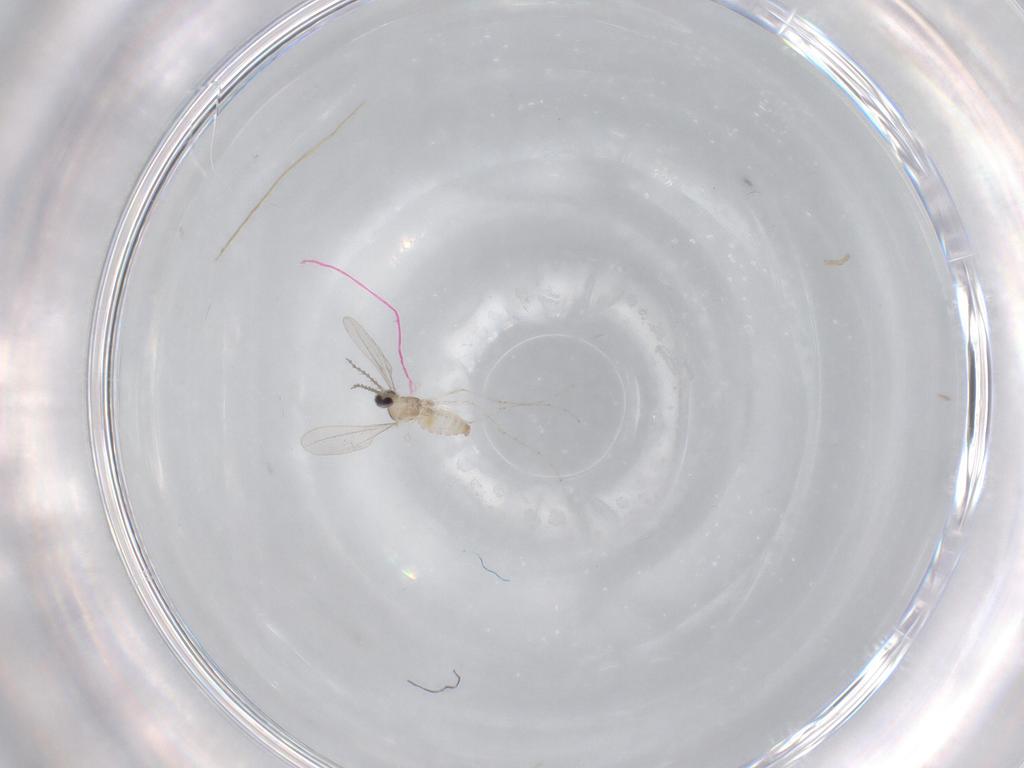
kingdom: Animalia
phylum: Arthropoda
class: Insecta
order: Diptera
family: Cecidomyiidae
